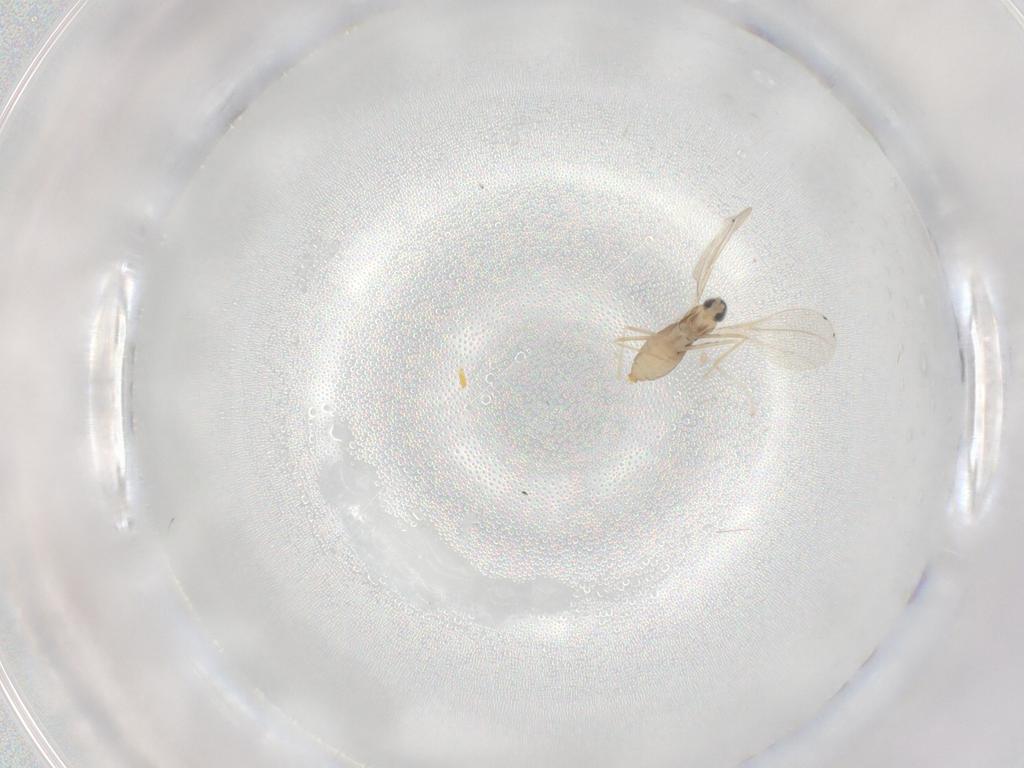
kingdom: Animalia
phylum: Arthropoda
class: Insecta
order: Diptera
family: Cecidomyiidae
